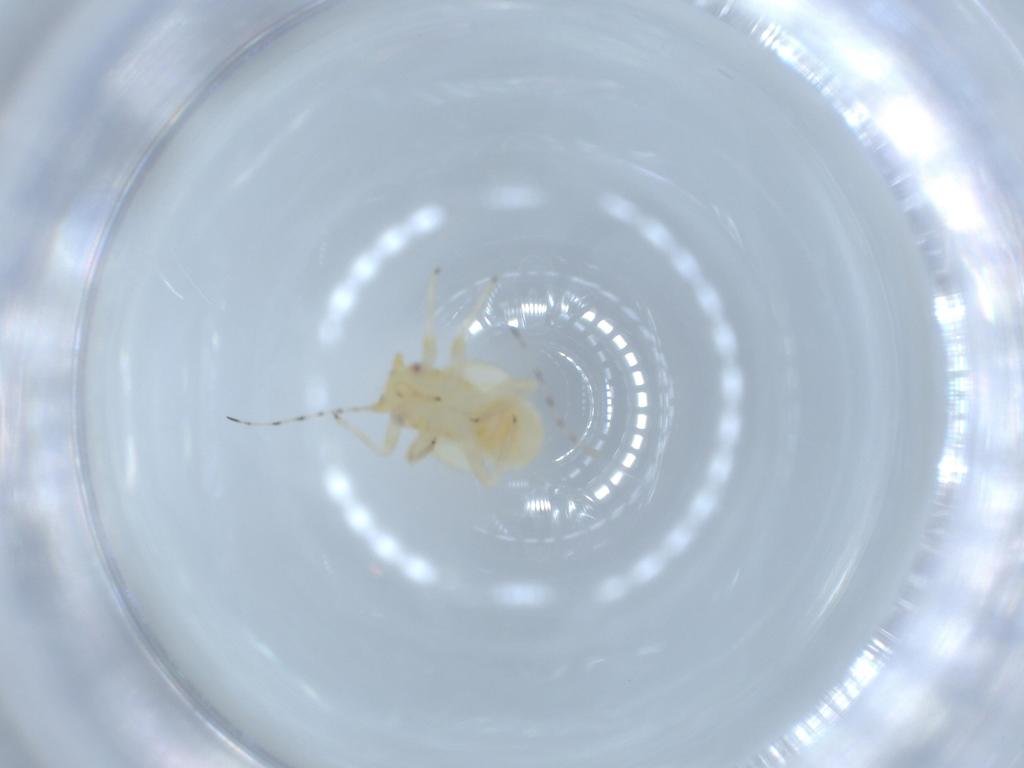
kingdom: Animalia
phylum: Arthropoda
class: Insecta
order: Hemiptera
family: Psyllidae
